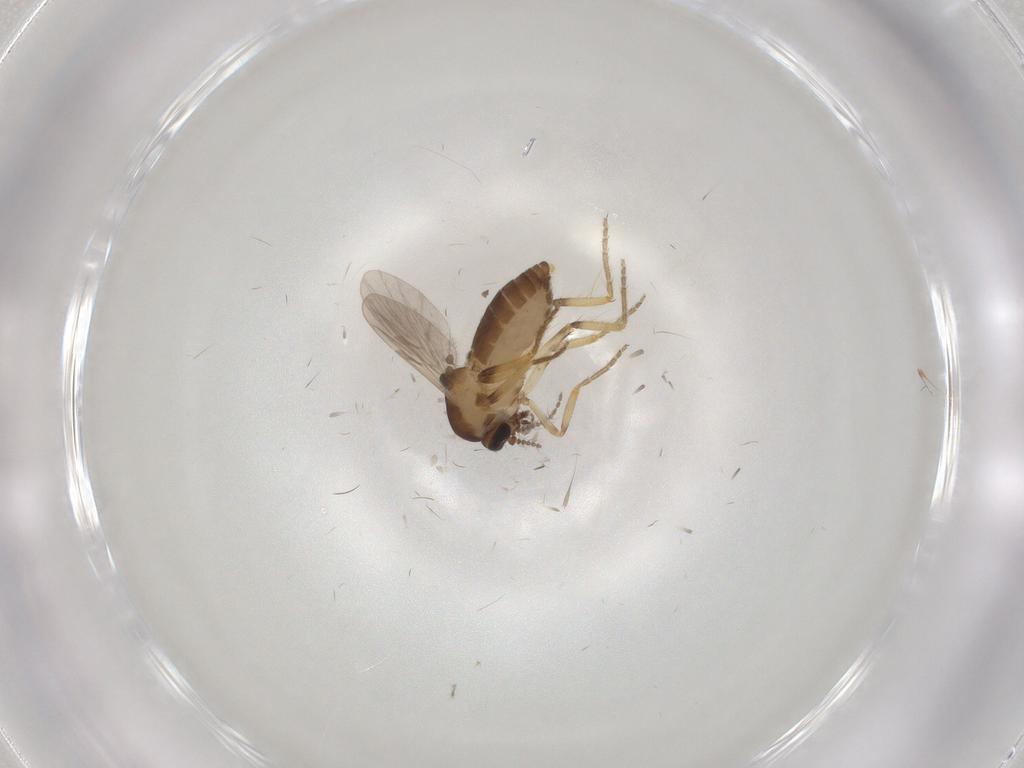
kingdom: Animalia
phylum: Arthropoda
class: Insecta
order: Diptera
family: Ceratopogonidae
